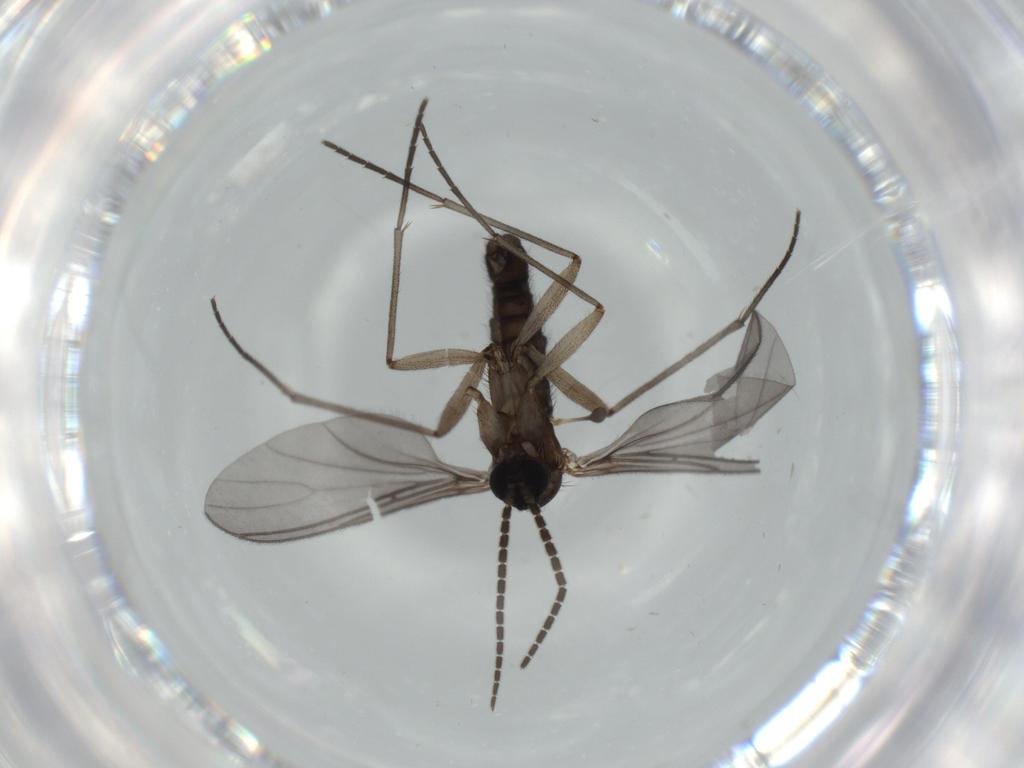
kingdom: Animalia
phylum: Arthropoda
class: Insecta
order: Diptera
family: Sciaridae
